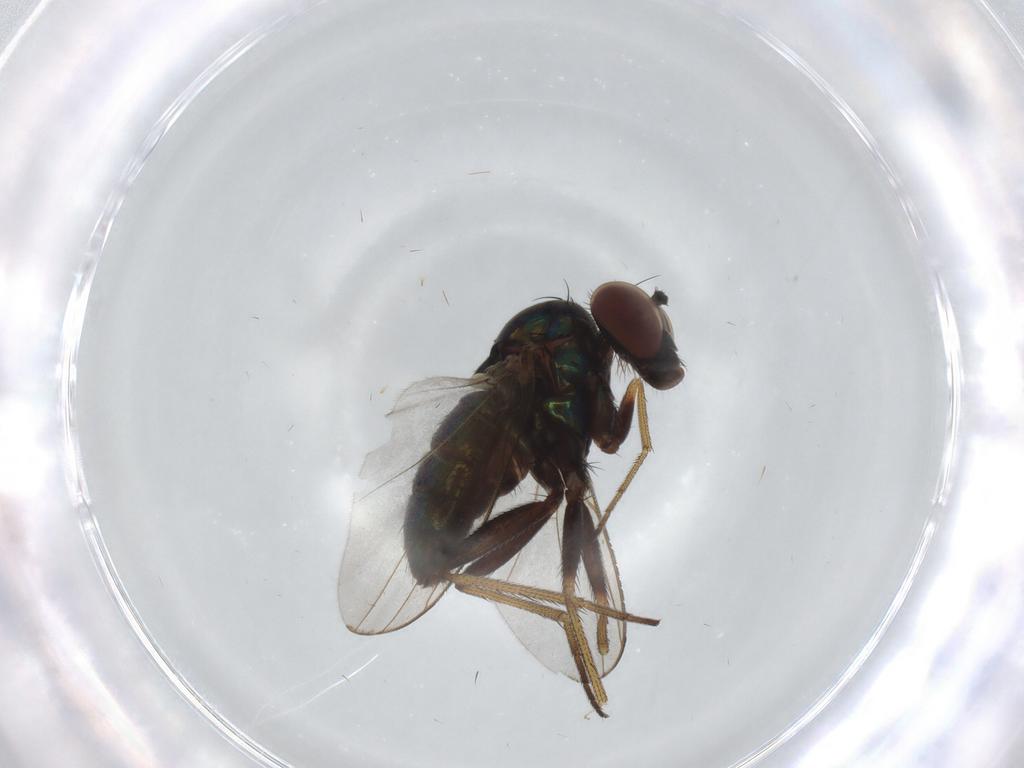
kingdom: Animalia
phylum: Arthropoda
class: Insecta
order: Diptera
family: Dolichopodidae
